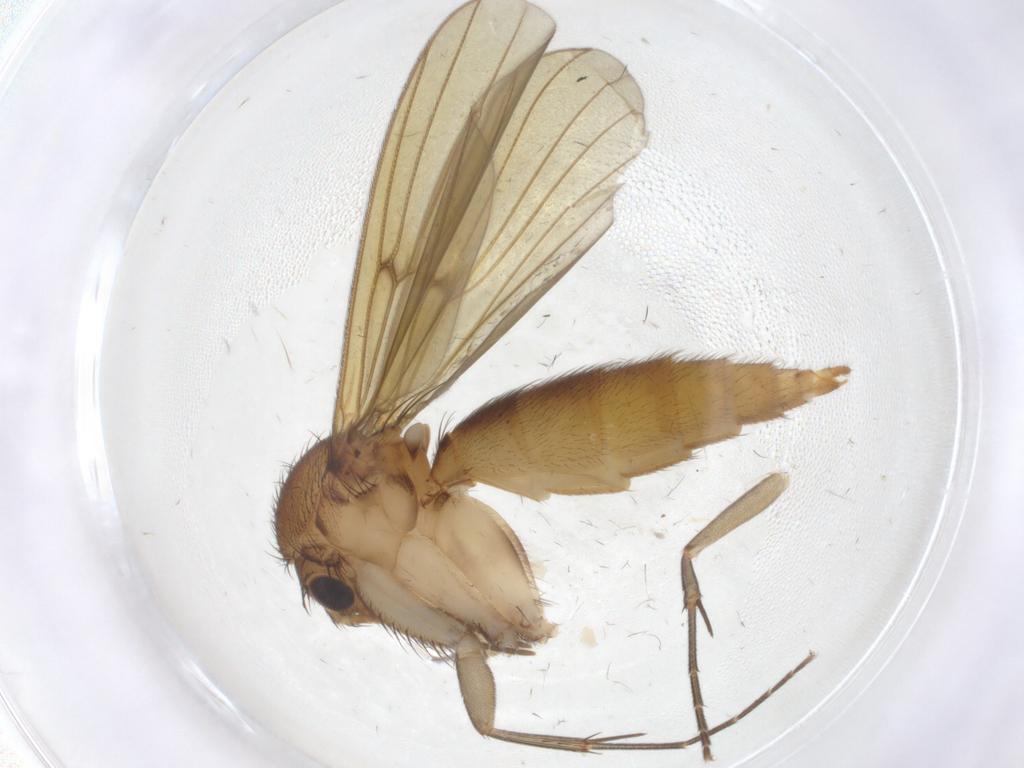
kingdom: Animalia
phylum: Arthropoda
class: Insecta
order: Diptera
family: Mycetophilidae
